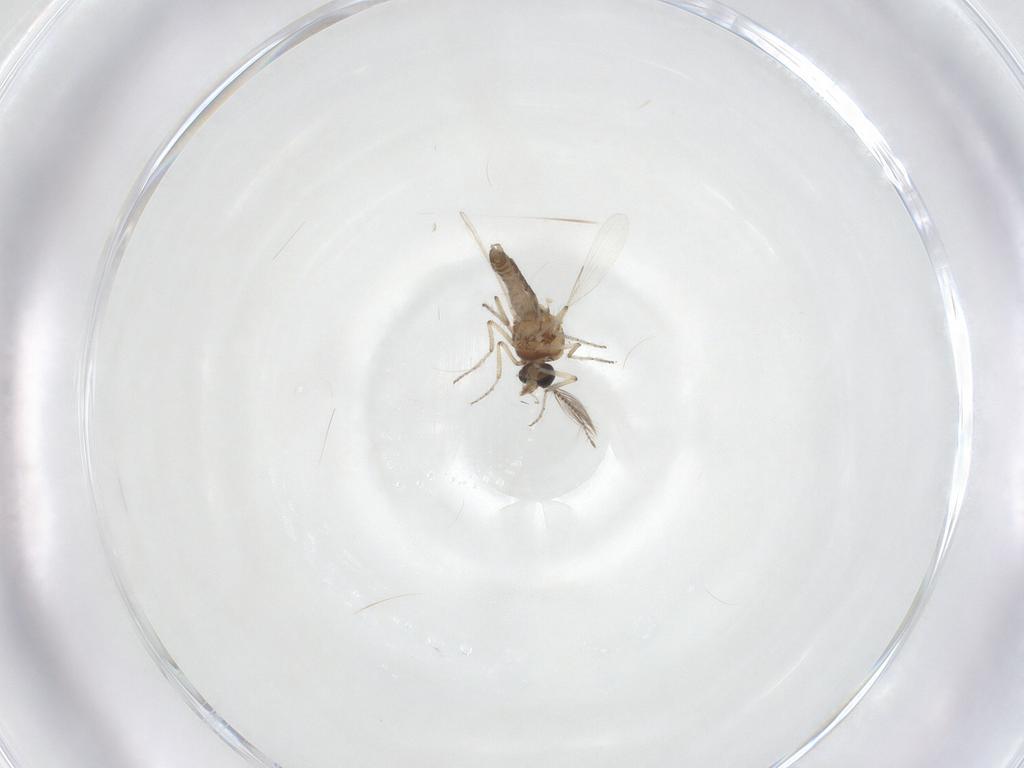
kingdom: Animalia
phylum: Arthropoda
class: Insecta
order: Diptera
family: Ceratopogonidae
